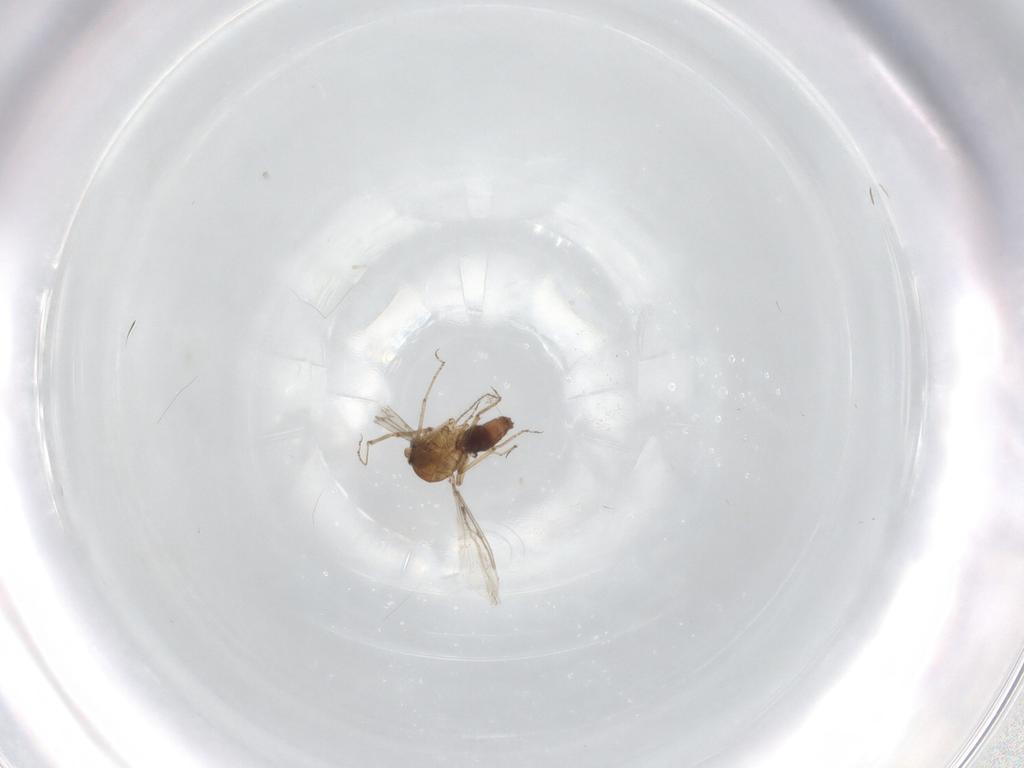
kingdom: Animalia
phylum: Arthropoda
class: Insecta
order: Diptera
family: Chironomidae
